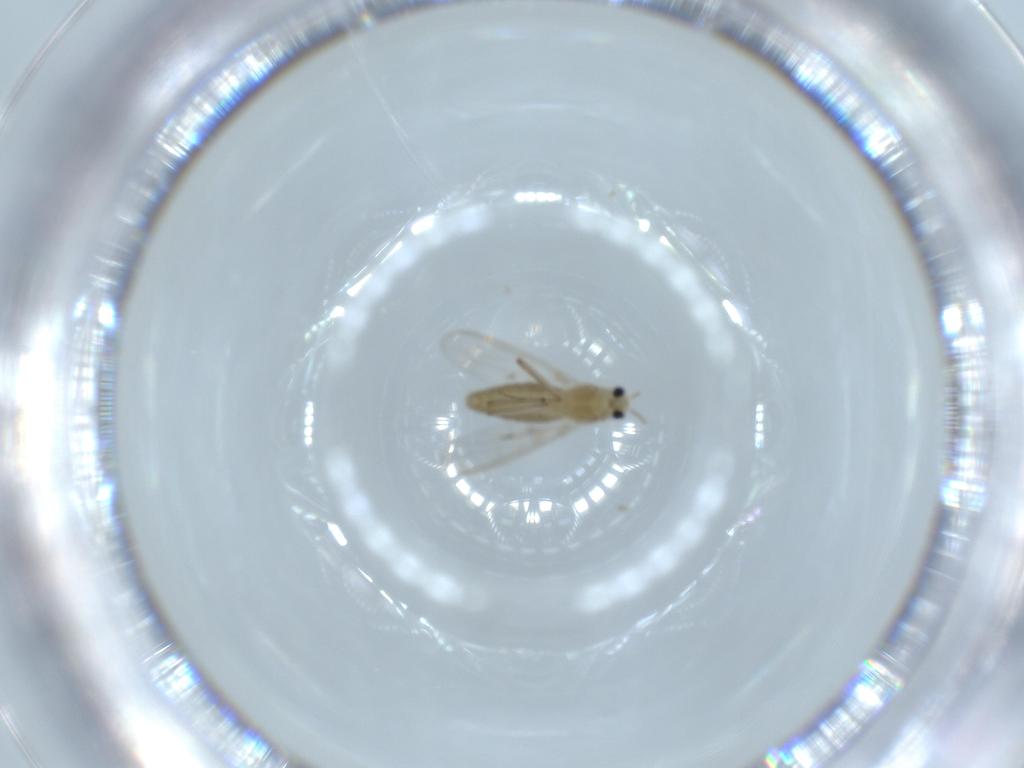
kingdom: Animalia
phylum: Arthropoda
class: Insecta
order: Diptera
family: Chironomidae
